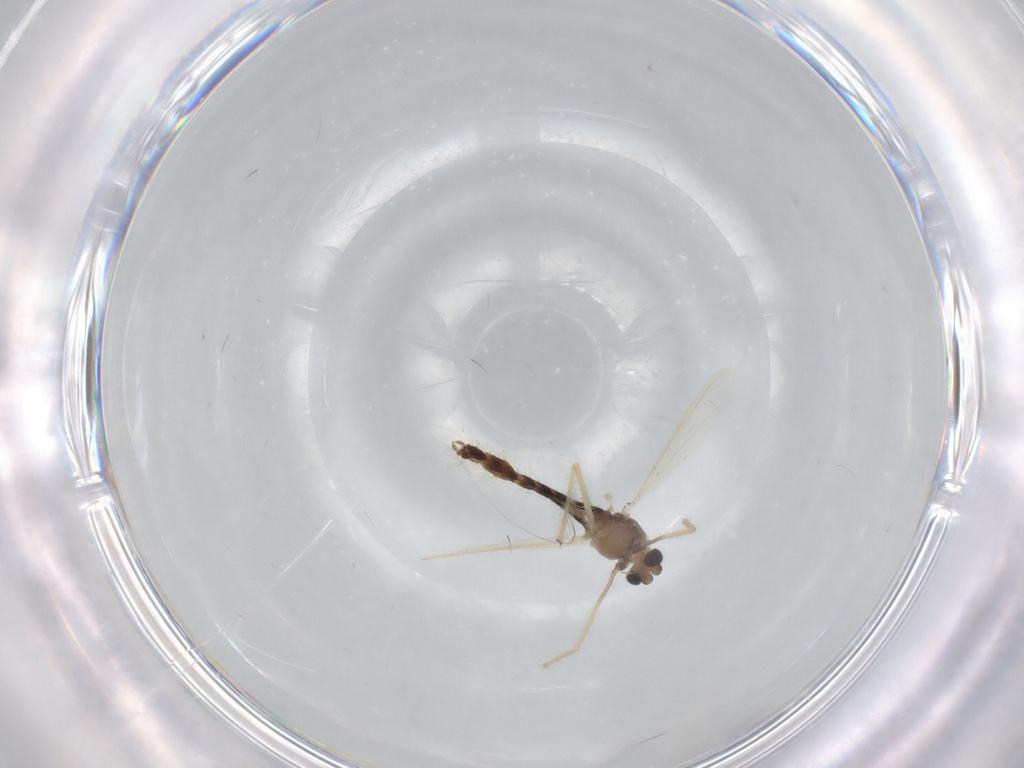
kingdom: Animalia
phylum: Arthropoda
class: Insecta
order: Diptera
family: Chironomidae
